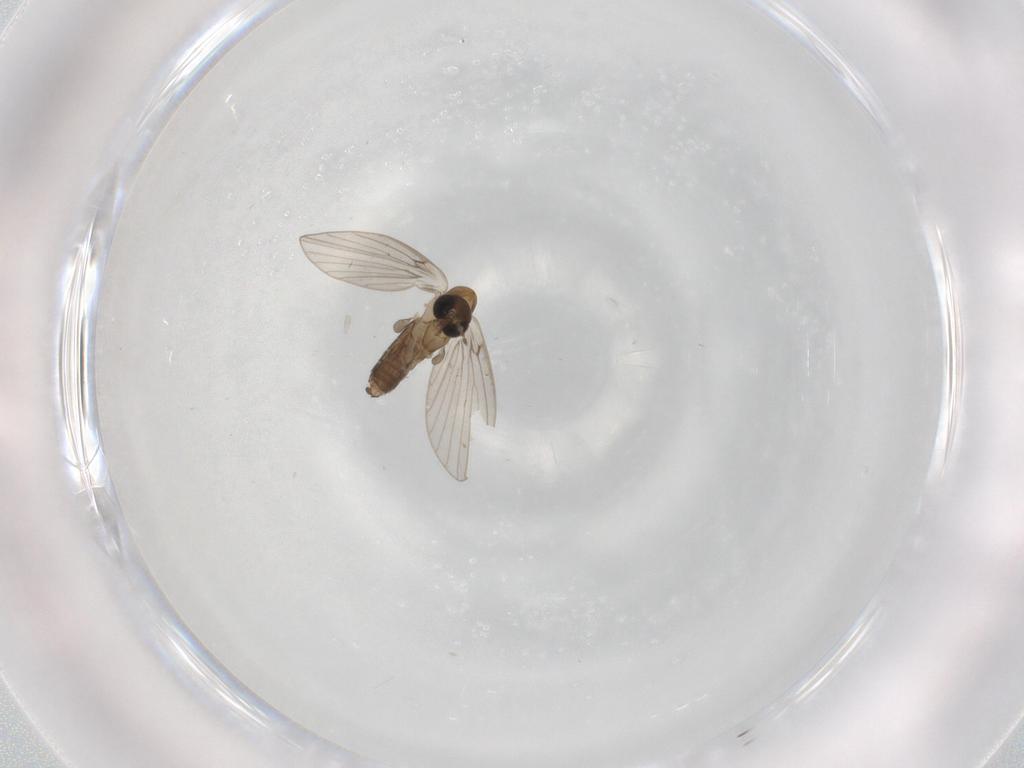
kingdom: Animalia
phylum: Arthropoda
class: Insecta
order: Diptera
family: Psychodidae
